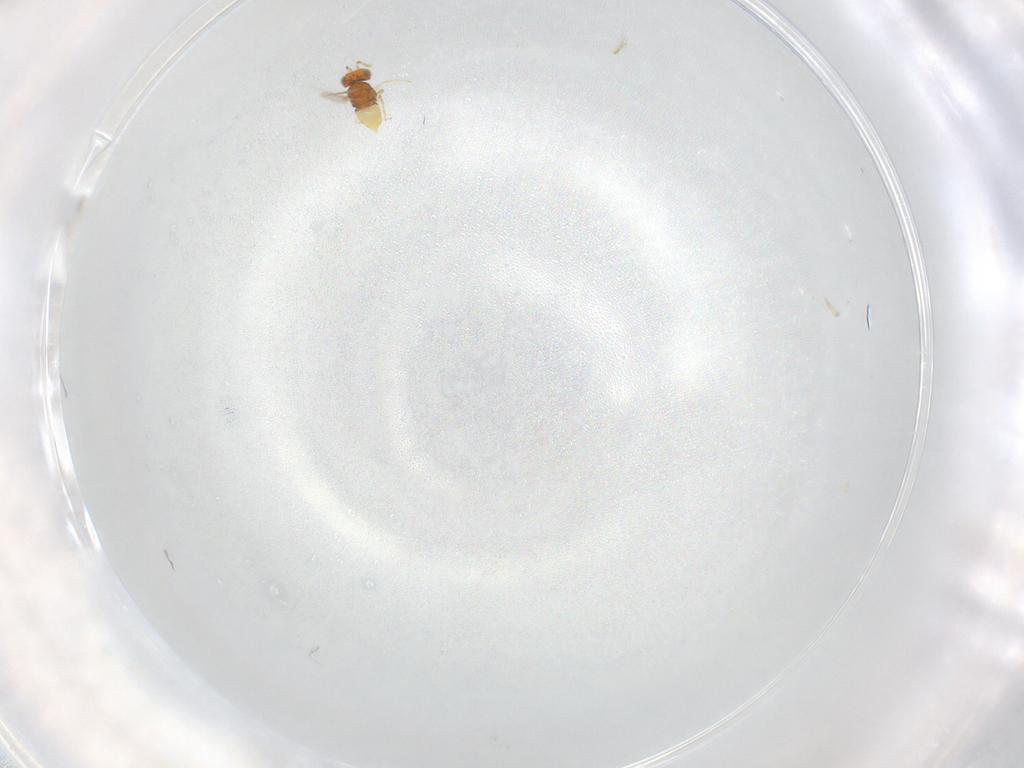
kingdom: Animalia
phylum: Arthropoda
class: Insecta
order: Hymenoptera
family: Aphelinidae
